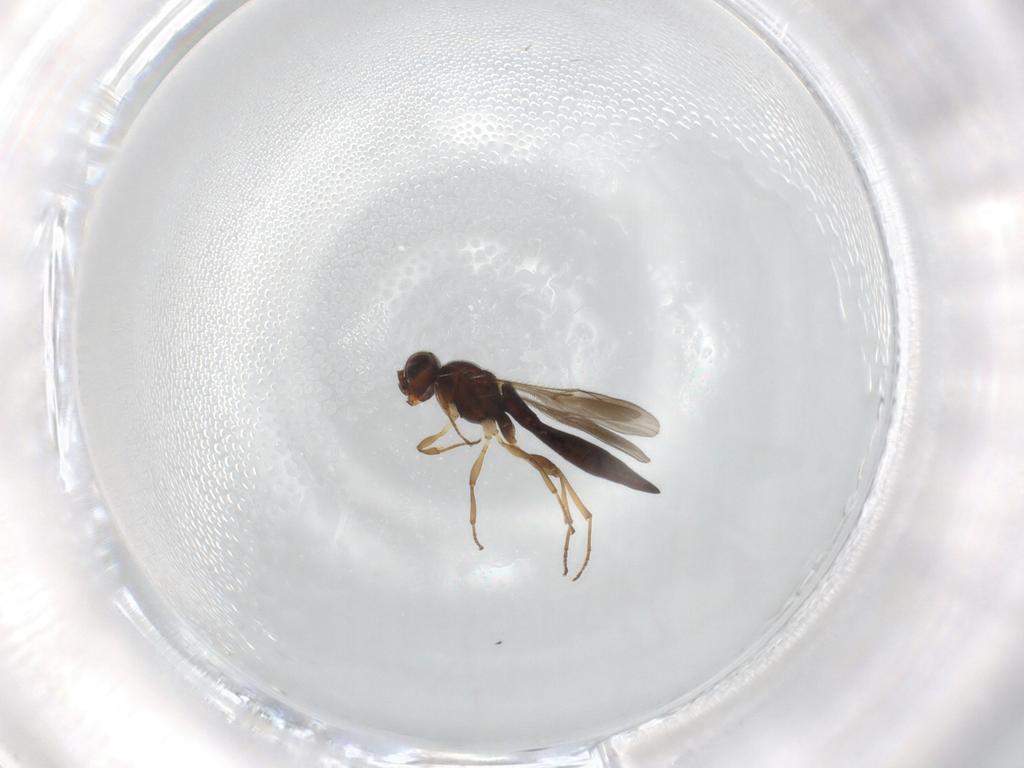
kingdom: Animalia
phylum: Arthropoda
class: Insecta
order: Hymenoptera
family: Scelionidae
